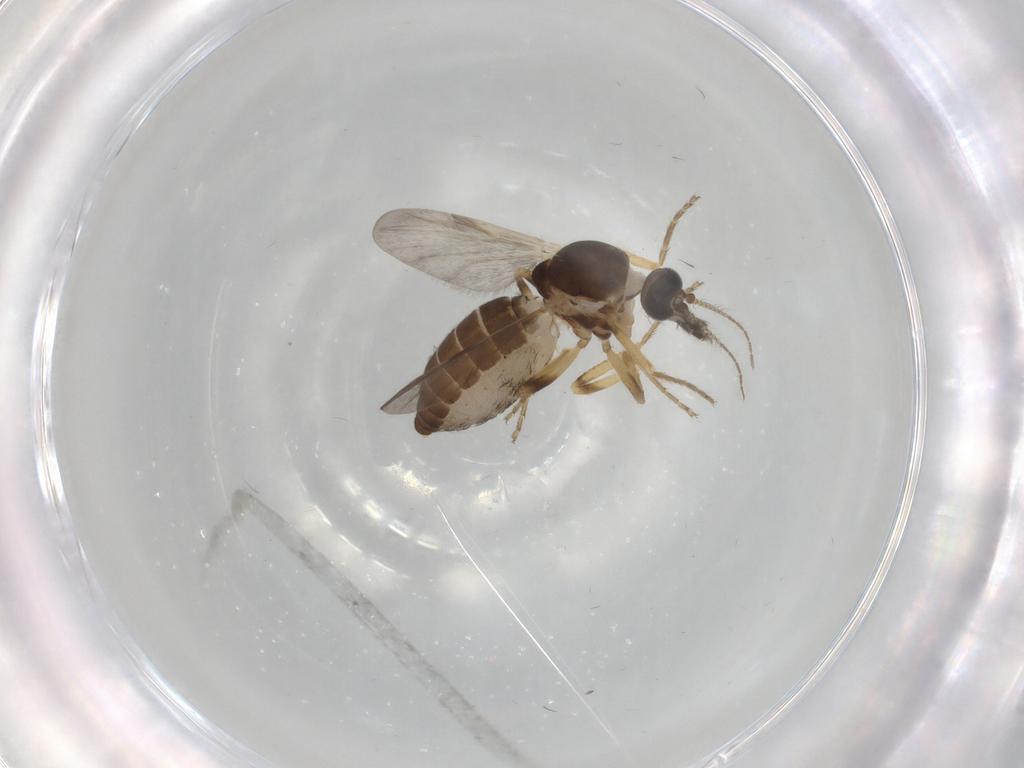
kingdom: Animalia
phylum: Arthropoda
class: Insecta
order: Diptera
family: Ceratopogonidae
